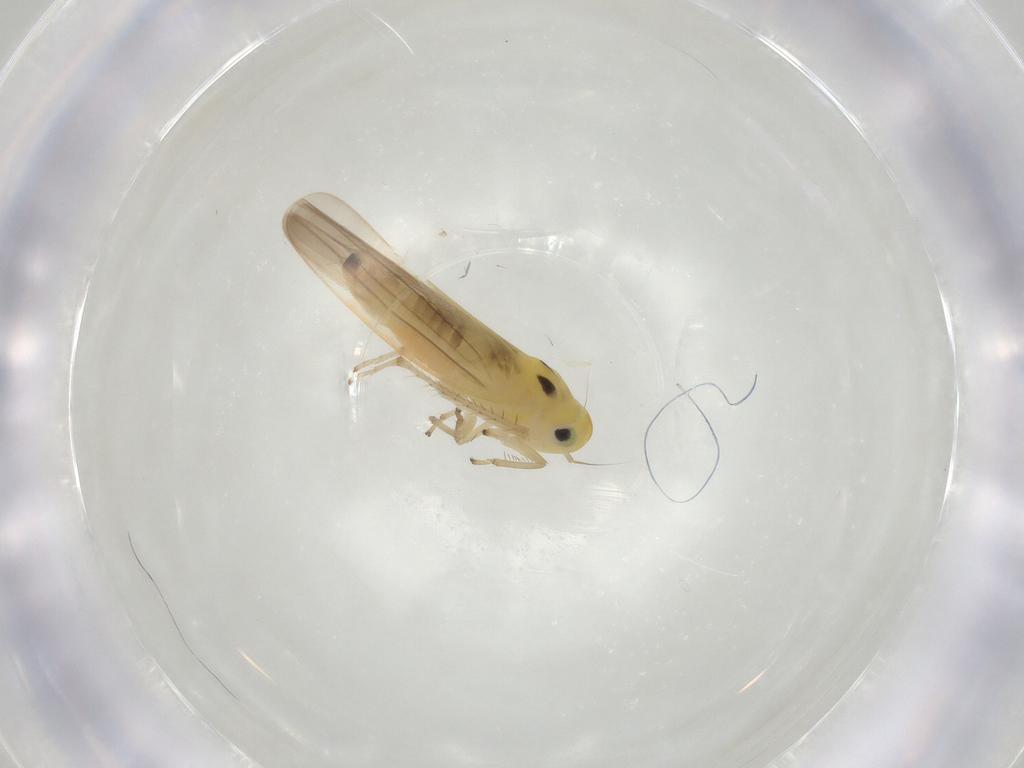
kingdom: Animalia
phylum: Arthropoda
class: Insecta
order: Hemiptera
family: Cicadellidae
